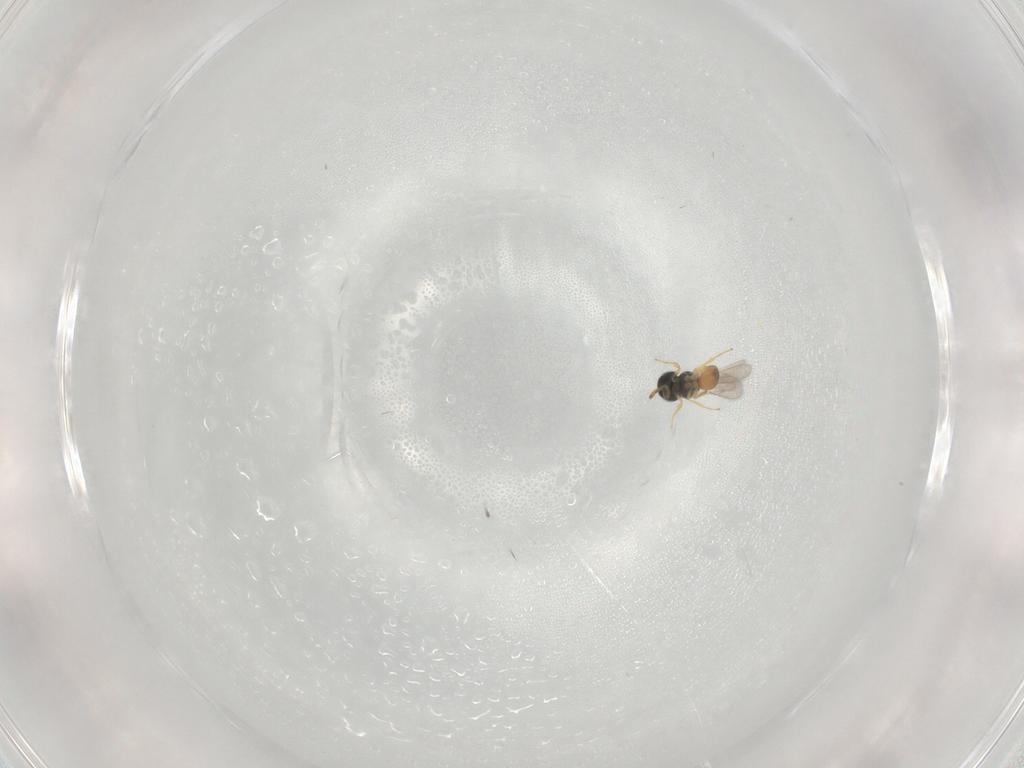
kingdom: Animalia
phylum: Arthropoda
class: Insecta
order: Hymenoptera
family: Scelionidae
